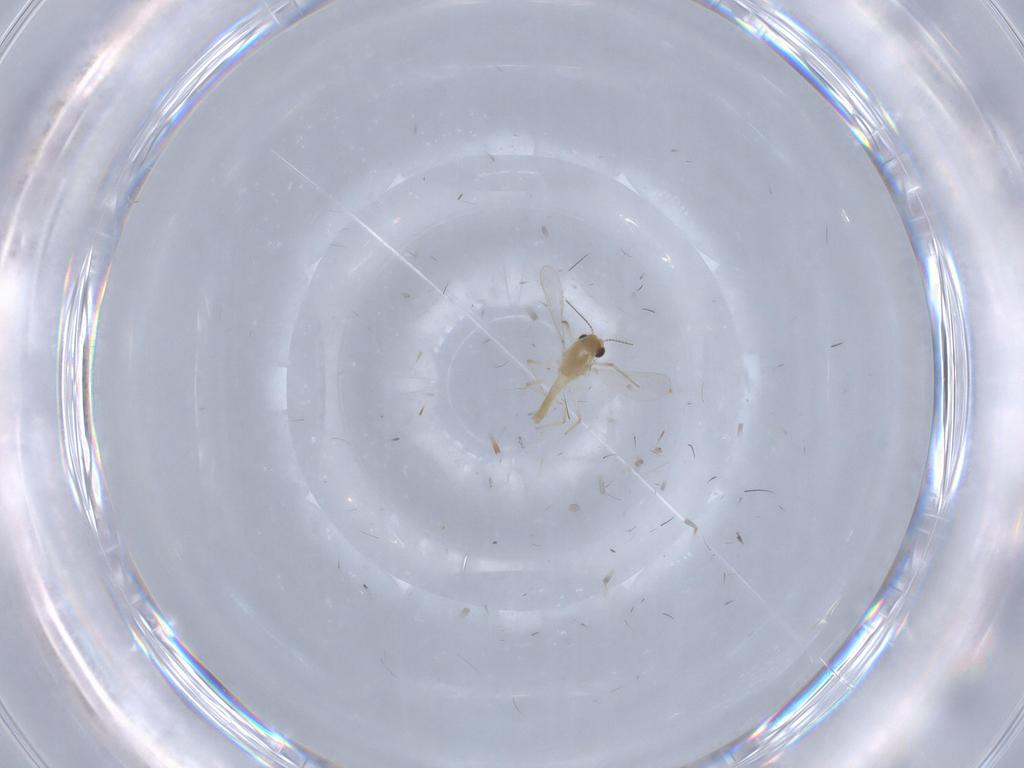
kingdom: Animalia
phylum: Arthropoda
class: Insecta
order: Diptera
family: Chironomidae
